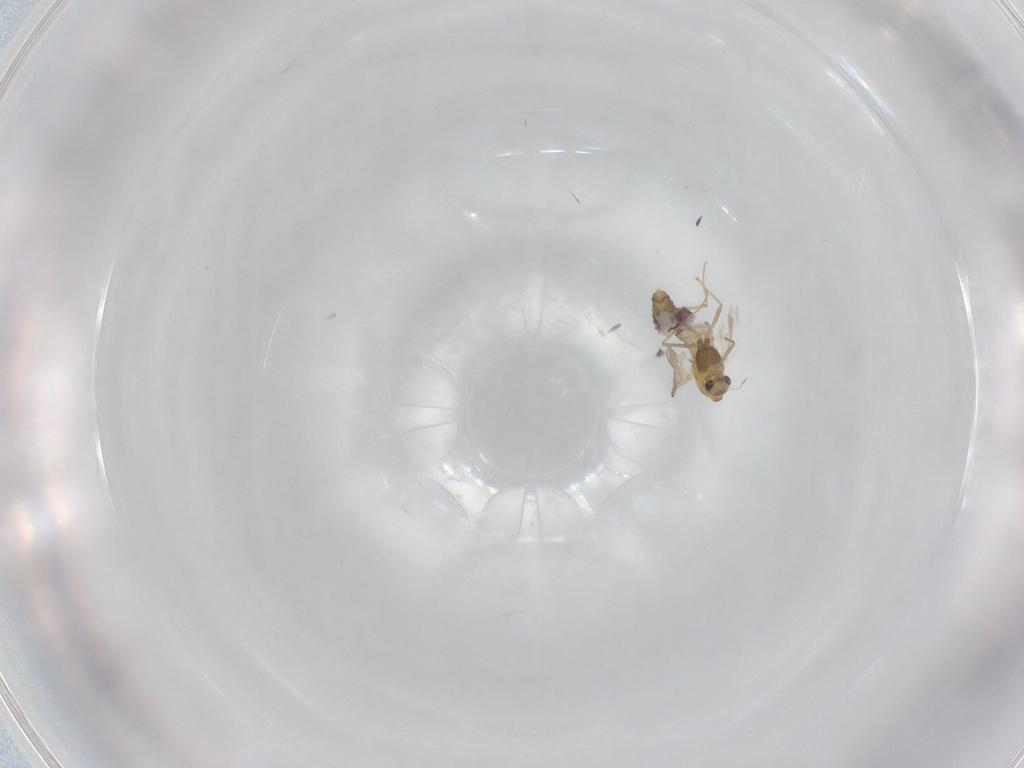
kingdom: Animalia
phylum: Arthropoda
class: Insecta
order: Diptera
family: Chironomidae
